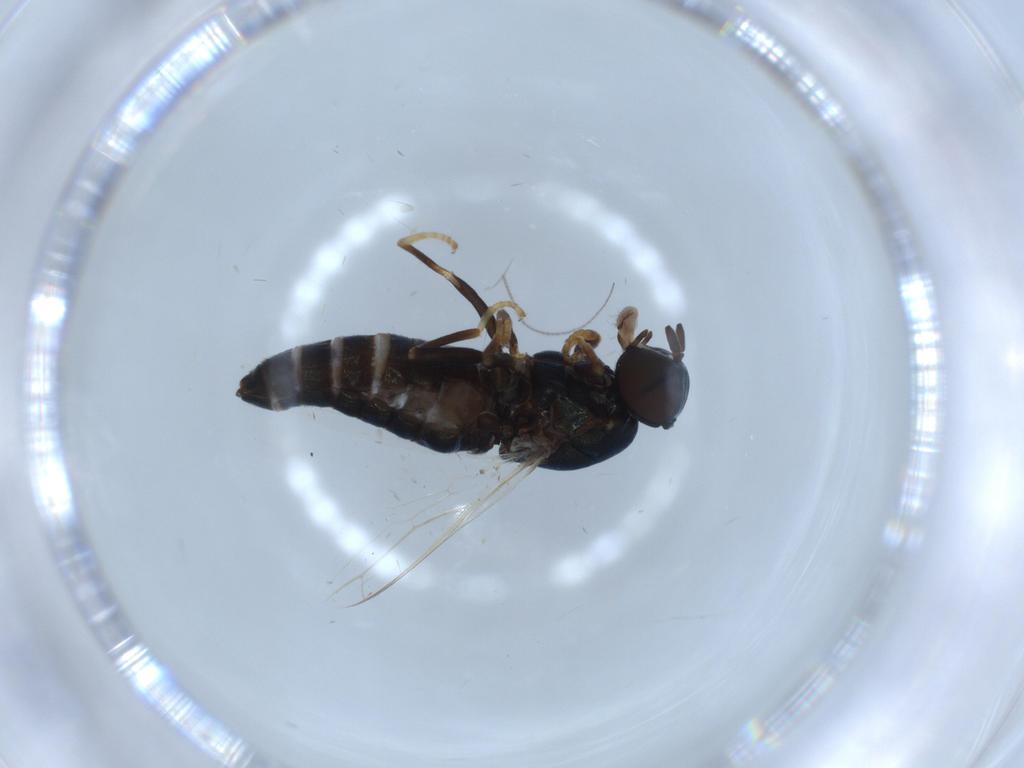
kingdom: Animalia
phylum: Arthropoda
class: Insecta
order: Diptera
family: Scenopinidae
